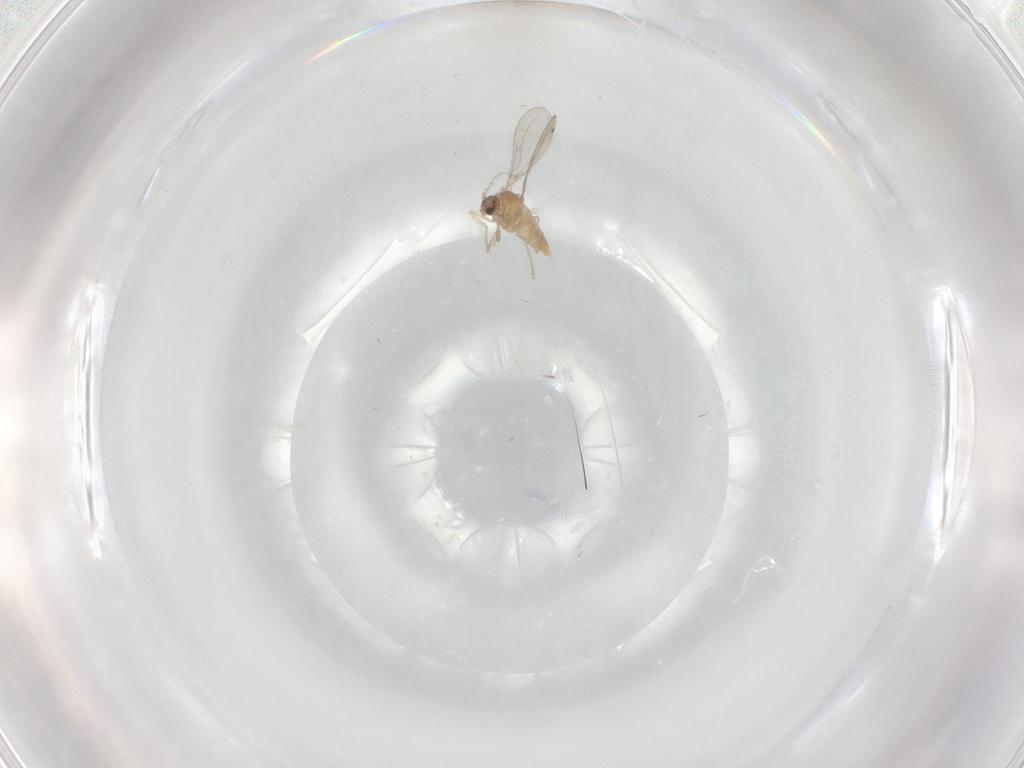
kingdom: Animalia
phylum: Arthropoda
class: Insecta
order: Diptera
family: Cecidomyiidae
